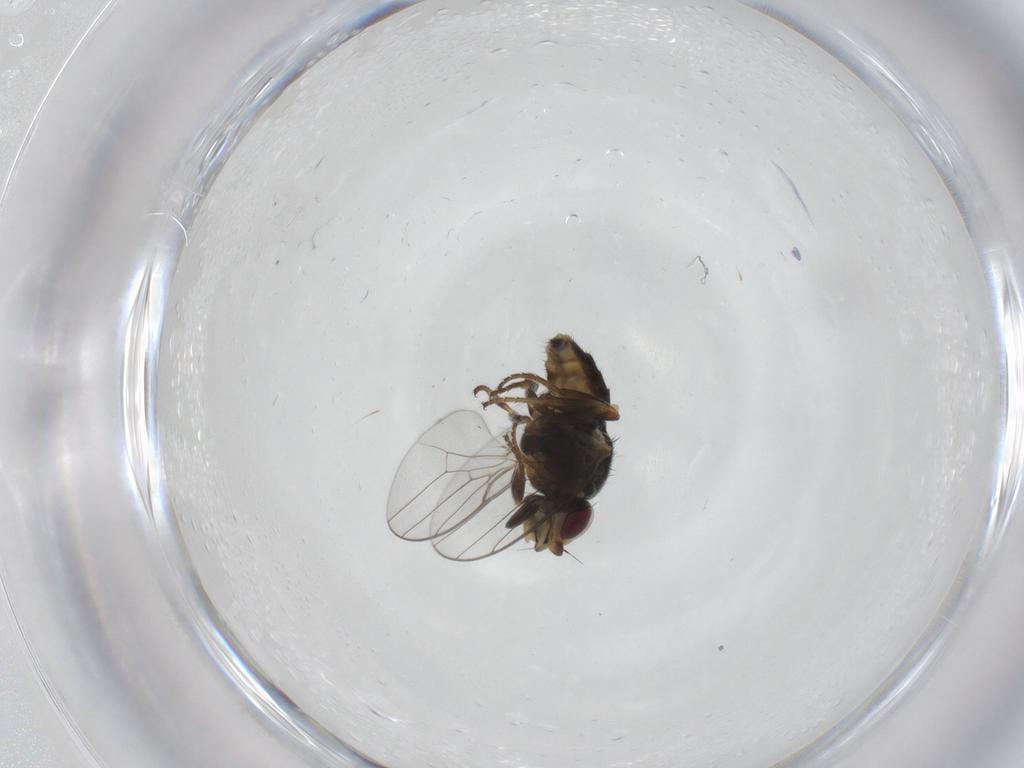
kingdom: Animalia
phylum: Arthropoda
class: Insecta
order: Diptera
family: Chloropidae
